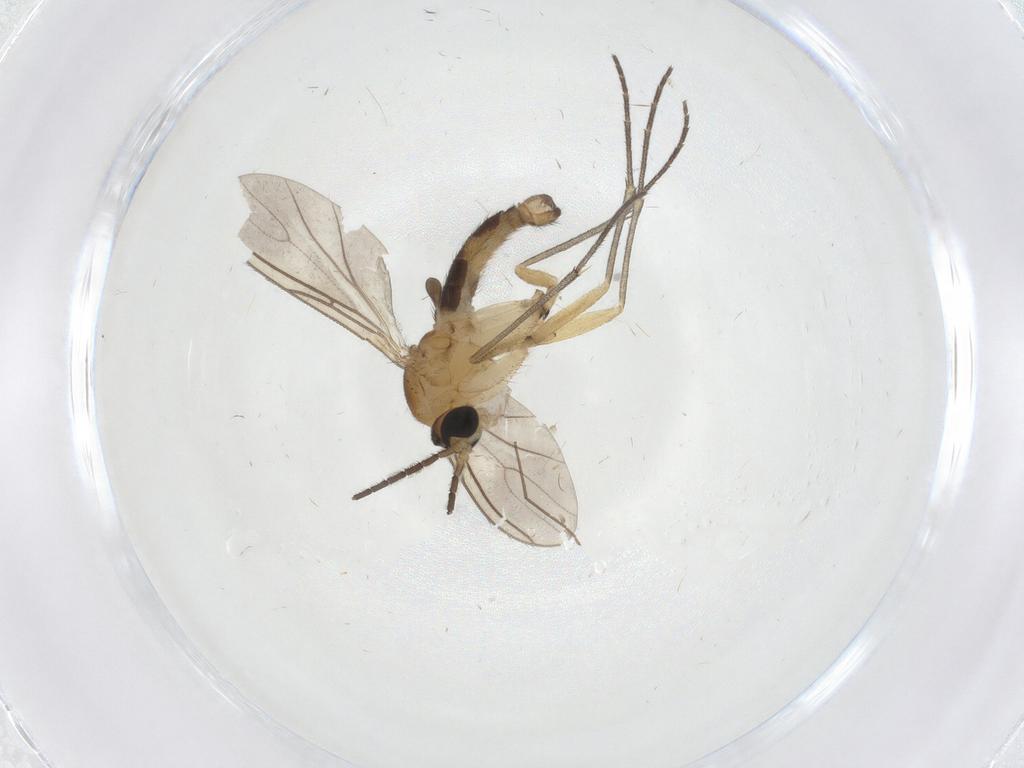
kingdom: Animalia
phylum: Arthropoda
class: Insecta
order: Diptera
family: Sciaridae
